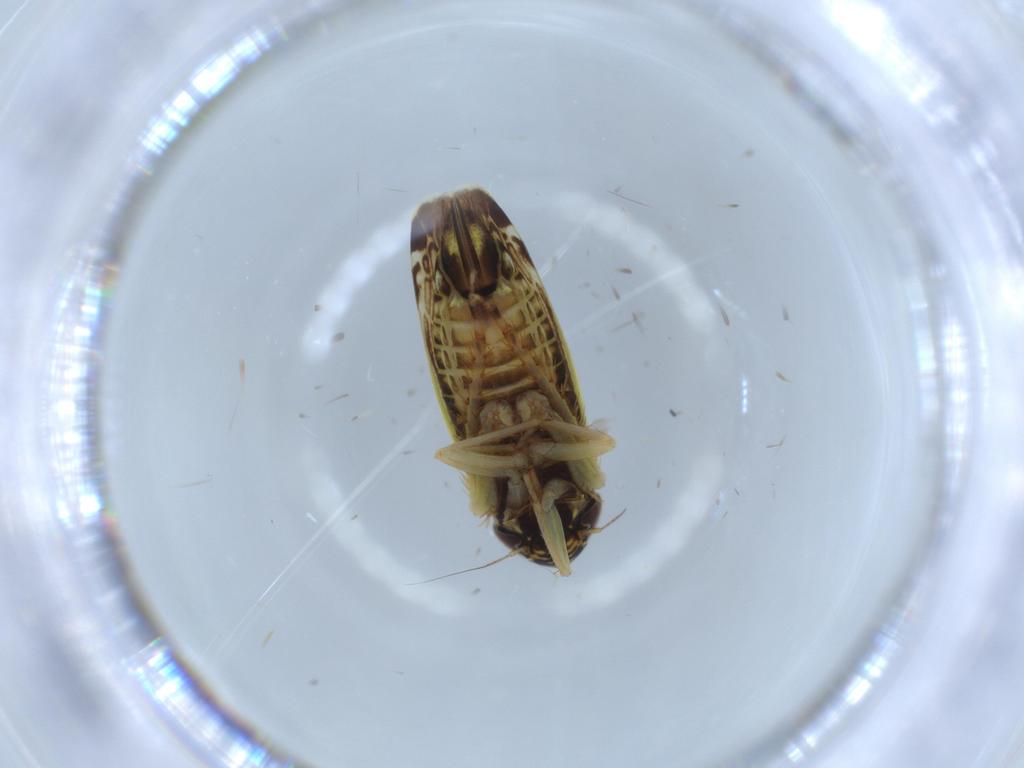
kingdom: Animalia
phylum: Arthropoda
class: Insecta
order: Hemiptera
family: Cicadellidae
